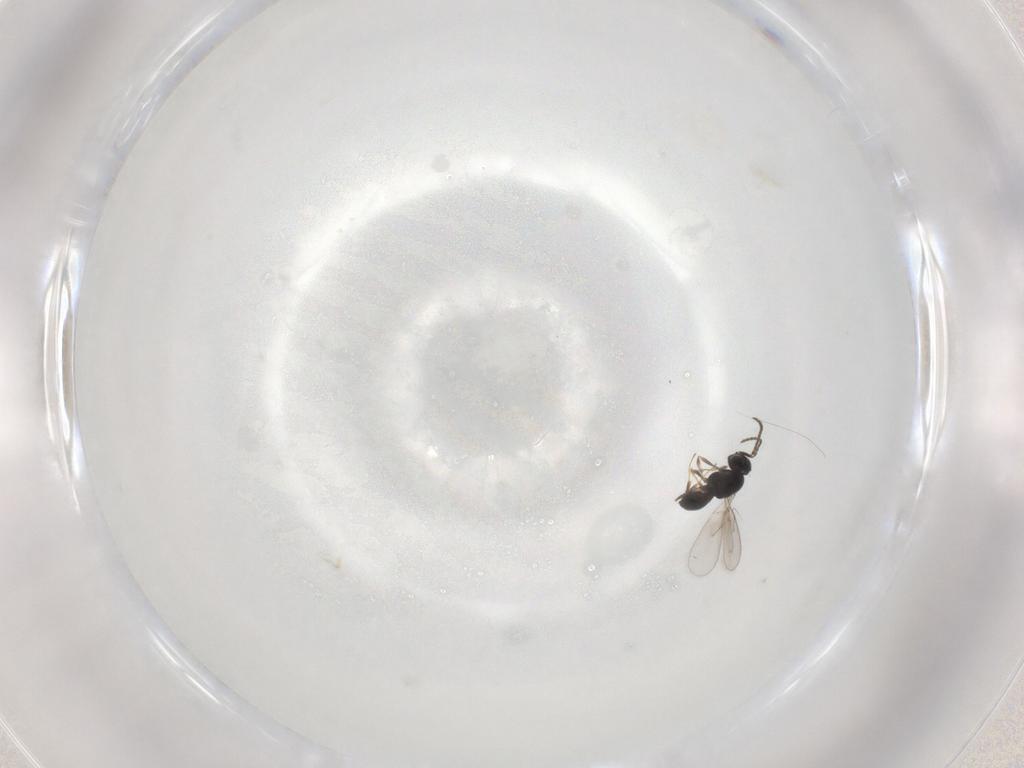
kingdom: Animalia
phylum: Arthropoda
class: Insecta
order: Hymenoptera
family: Scelionidae
